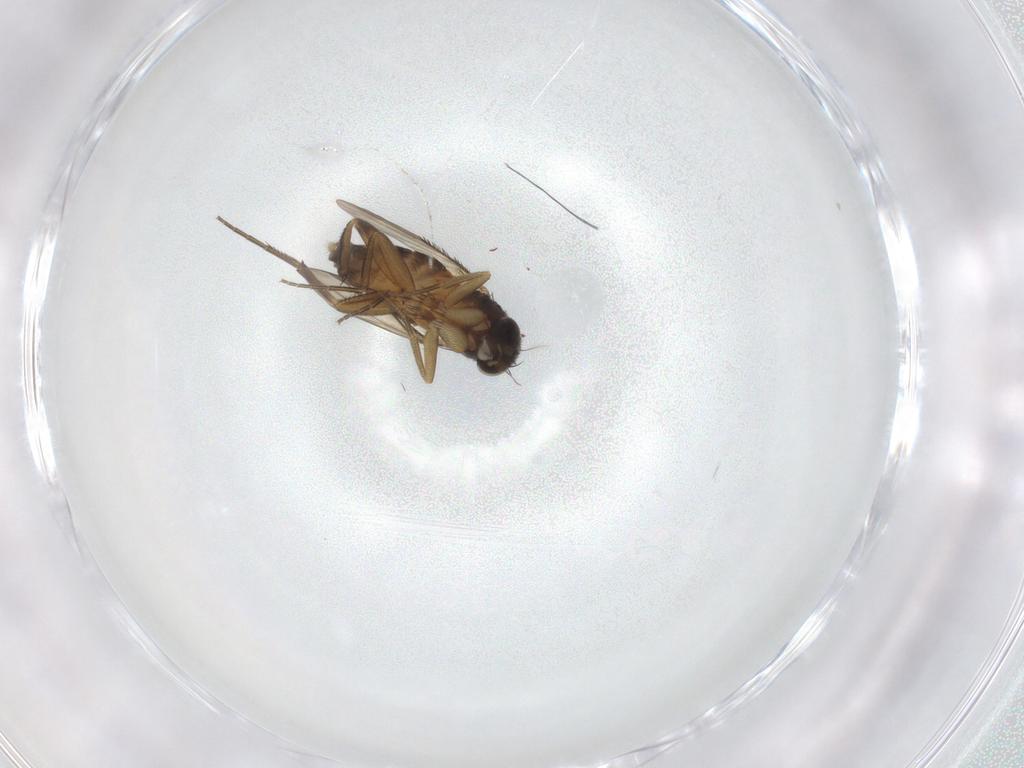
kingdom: Animalia
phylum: Arthropoda
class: Insecta
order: Diptera
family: Phoridae
